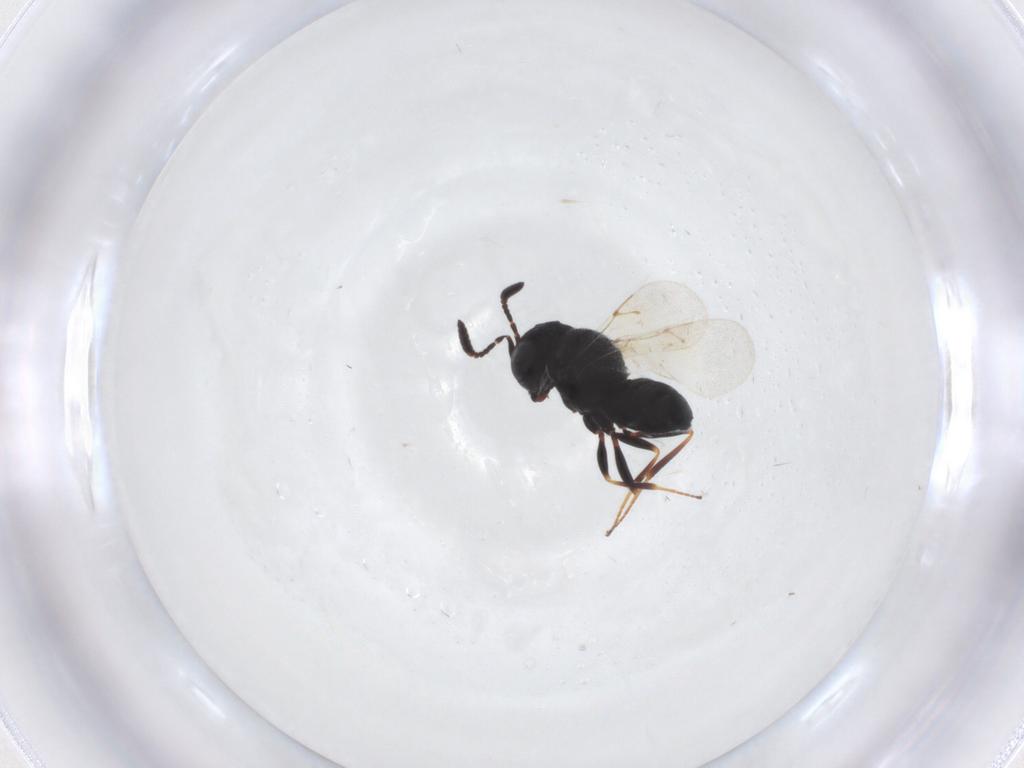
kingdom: Animalia
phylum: Arthropoda
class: Insecta
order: Hymenoptera
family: Scelionidae
